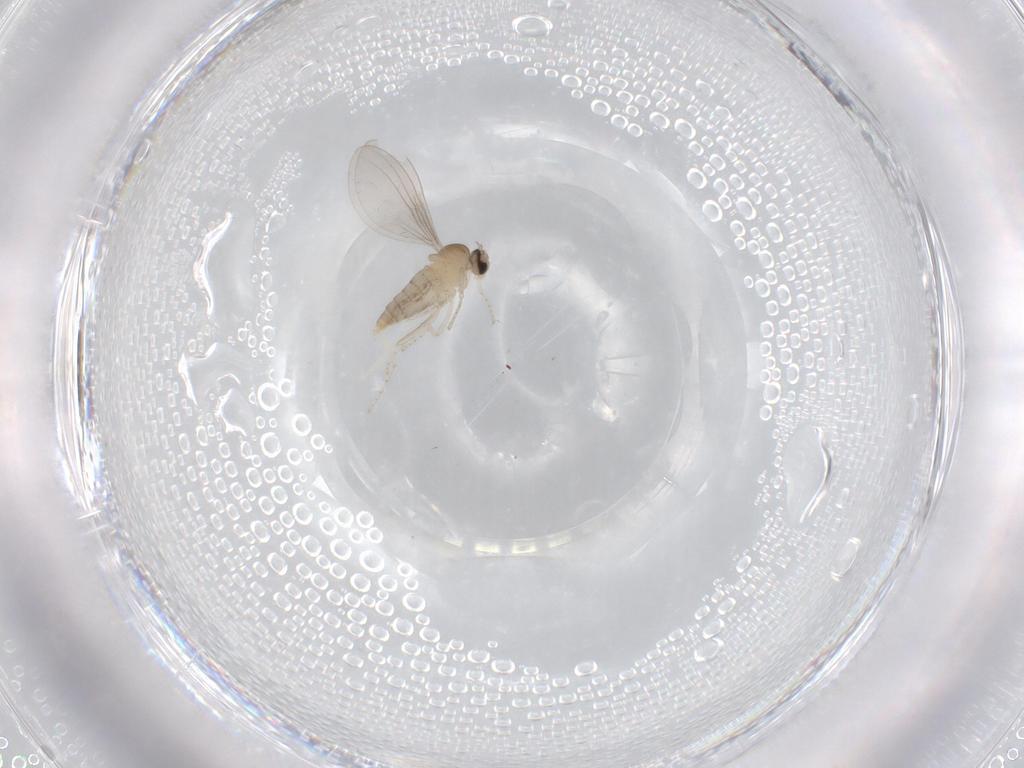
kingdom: Animalia
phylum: Arthropoda
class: Insecta
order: Diptera
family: Cecidomyiidae
